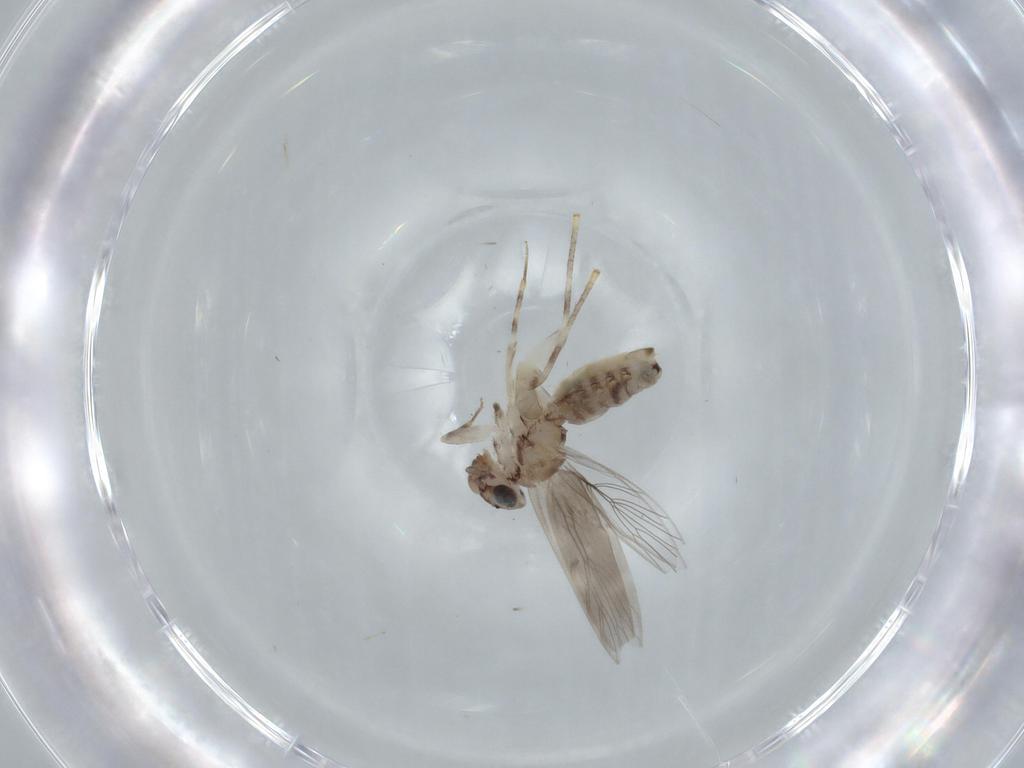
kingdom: Animalia
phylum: Arthropoda
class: Insecta
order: Psocodea
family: Lepidopsocidae
